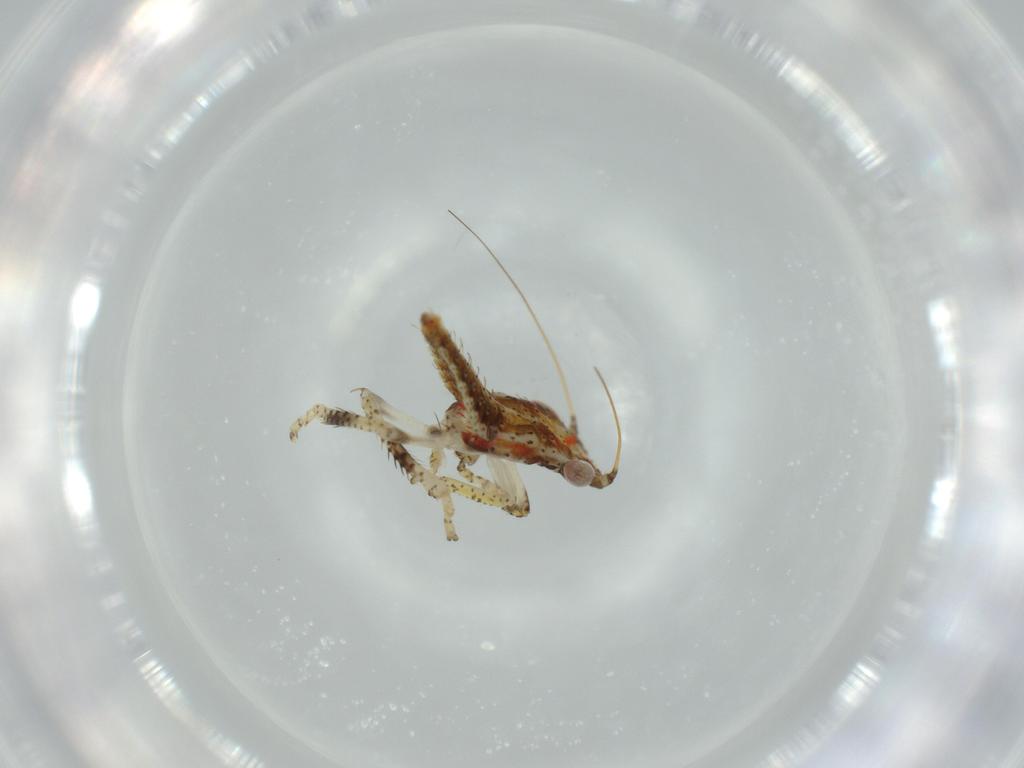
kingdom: Animalia
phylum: Arthropoda
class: Insecta
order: Hemiptera
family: Cicadellidae
